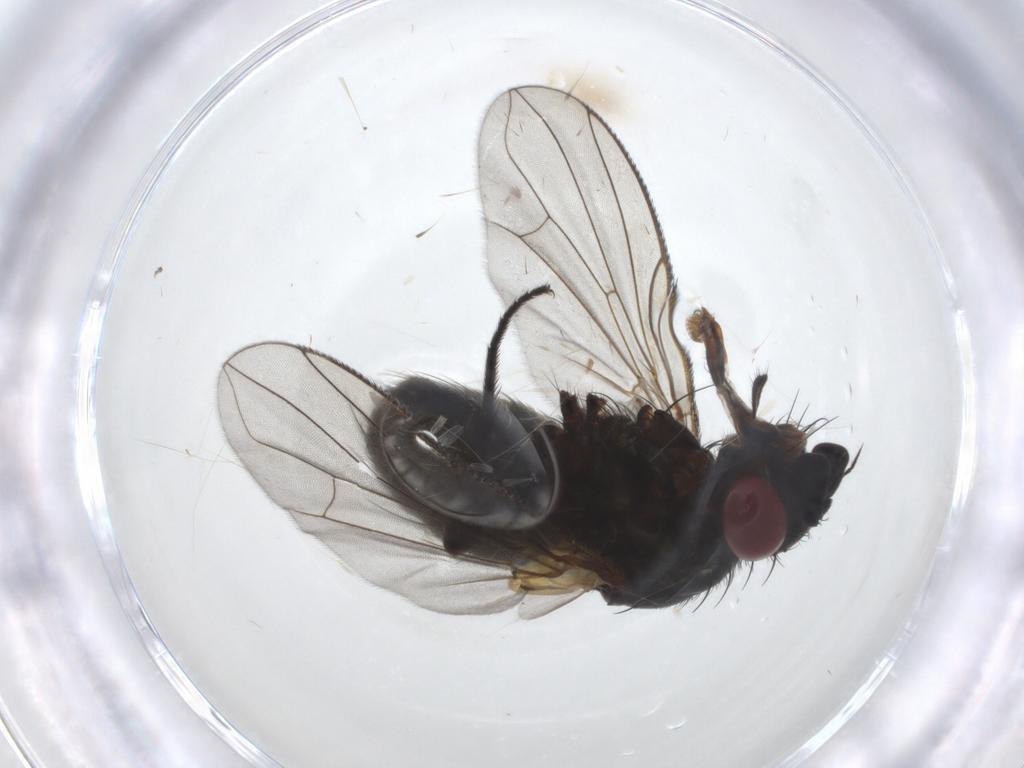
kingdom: Animalia
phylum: Arthropoda
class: Insecta
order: Diptera
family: Tachinidae
